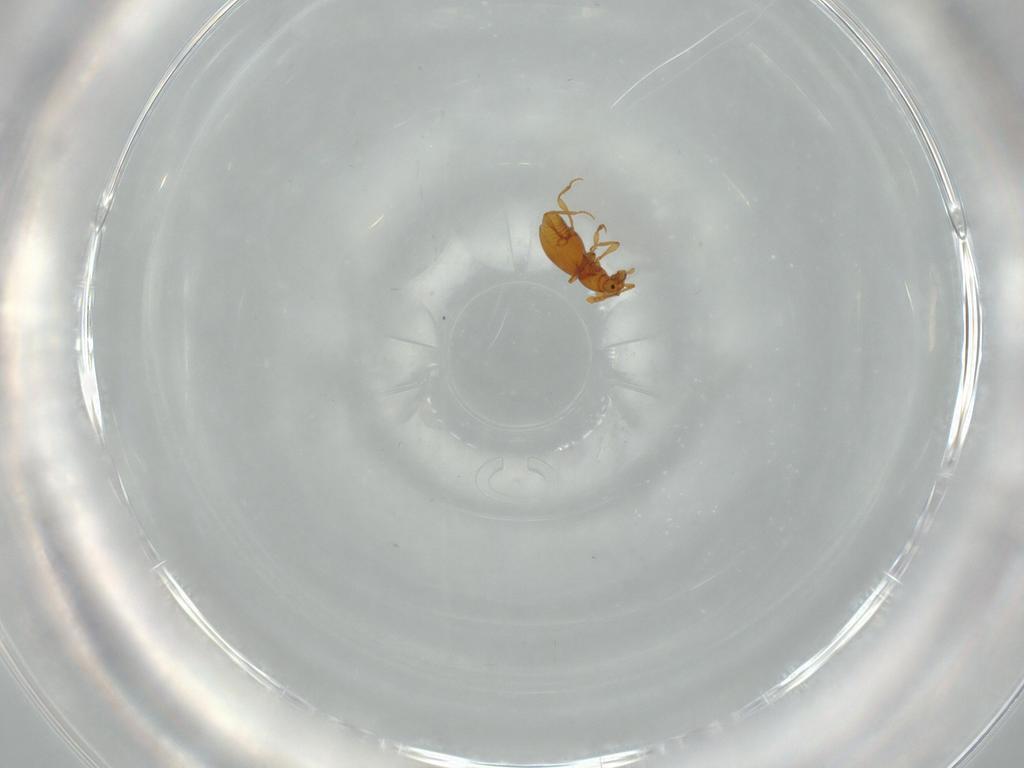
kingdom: Animalia
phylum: Arthropoda
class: Insecta
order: Coleoptera
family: Staphylinidae
